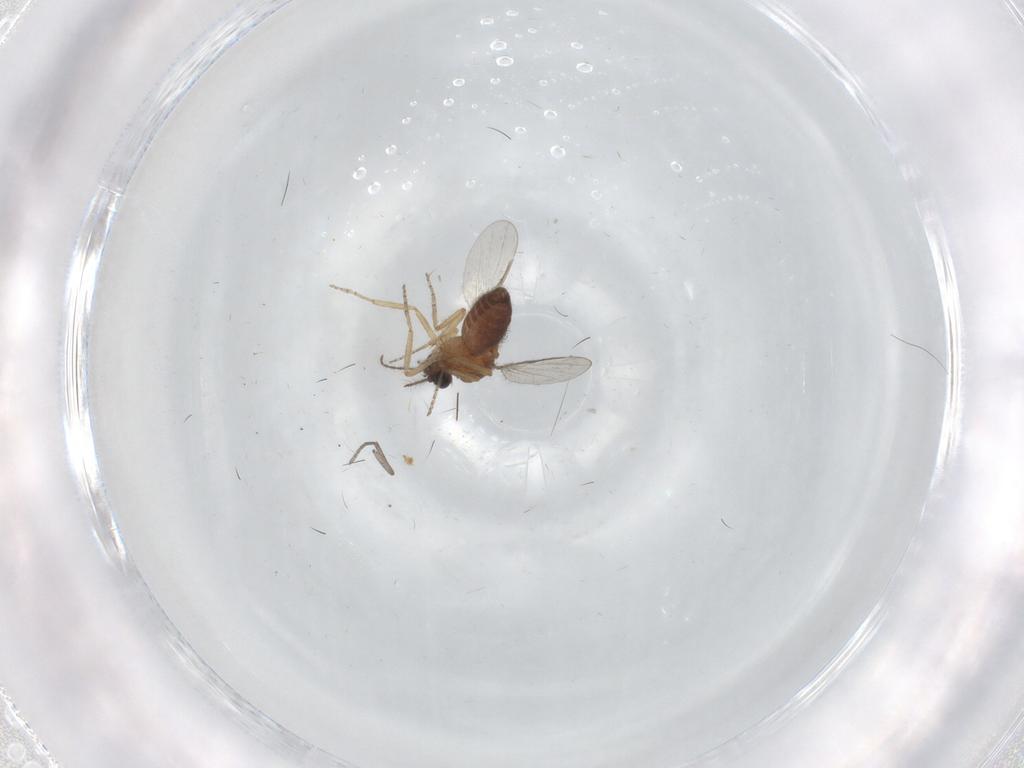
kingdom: Animalia
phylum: Arthropoda
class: Insecta
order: Diptera
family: Ceratopogonidae
